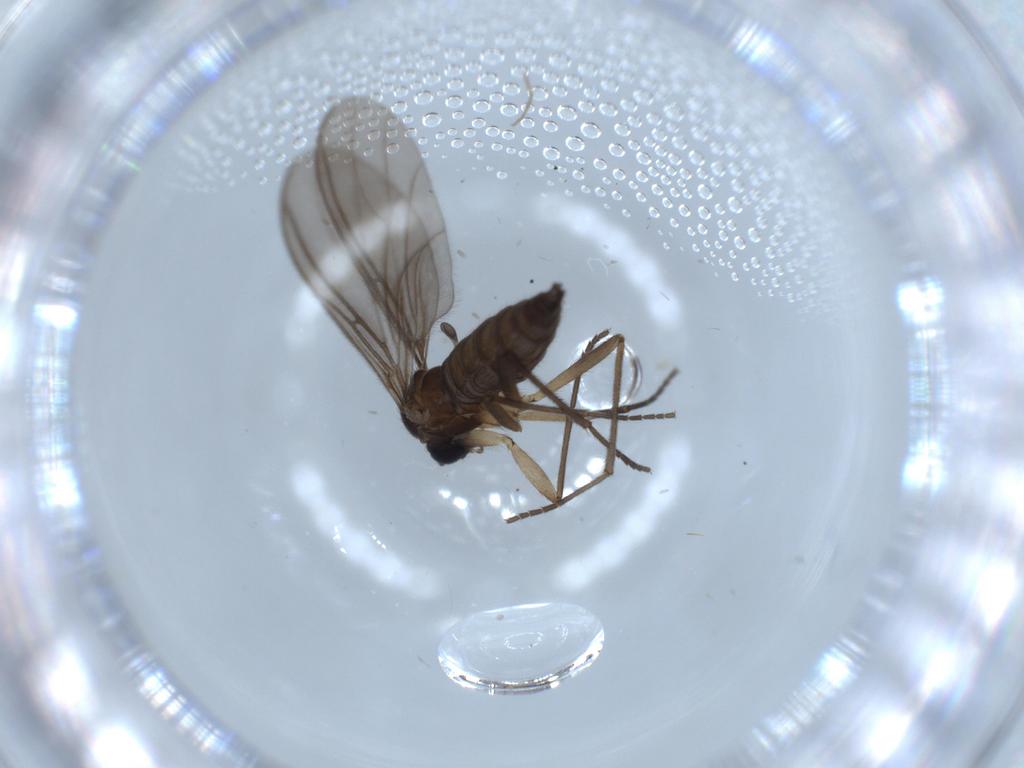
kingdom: Animalia
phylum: Arthropoda
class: Insecta
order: Diptera
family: Sciaridae
